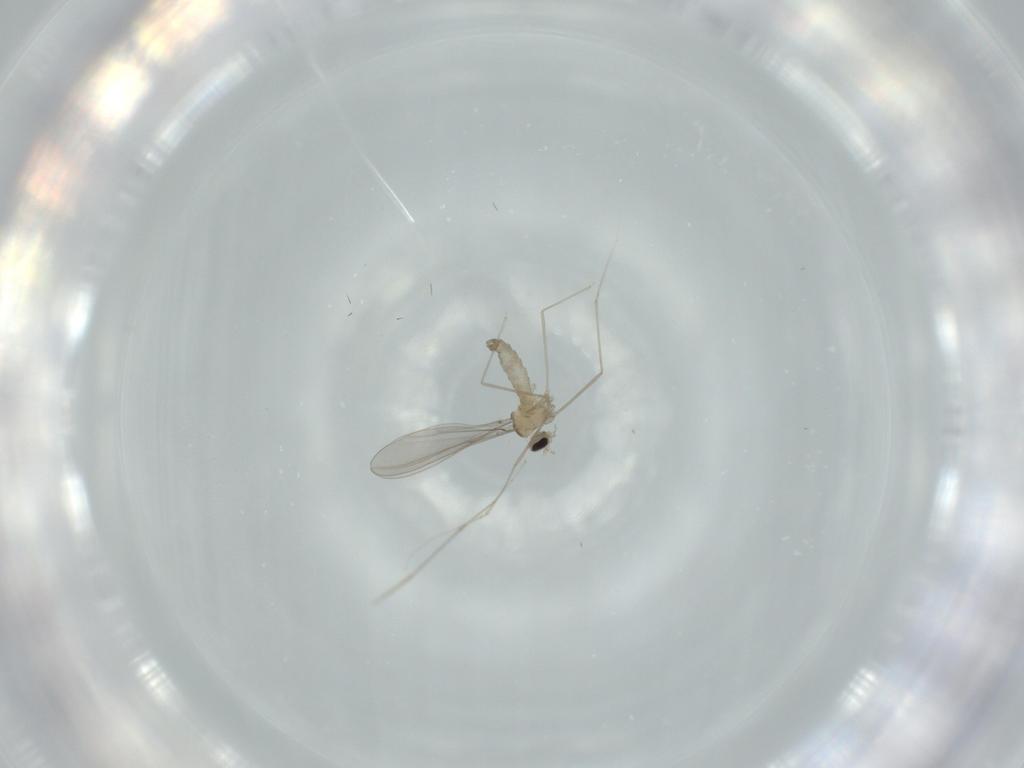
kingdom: Animalia
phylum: Arthropoda
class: Insecta
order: Diptera
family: Cecidomyiidae
